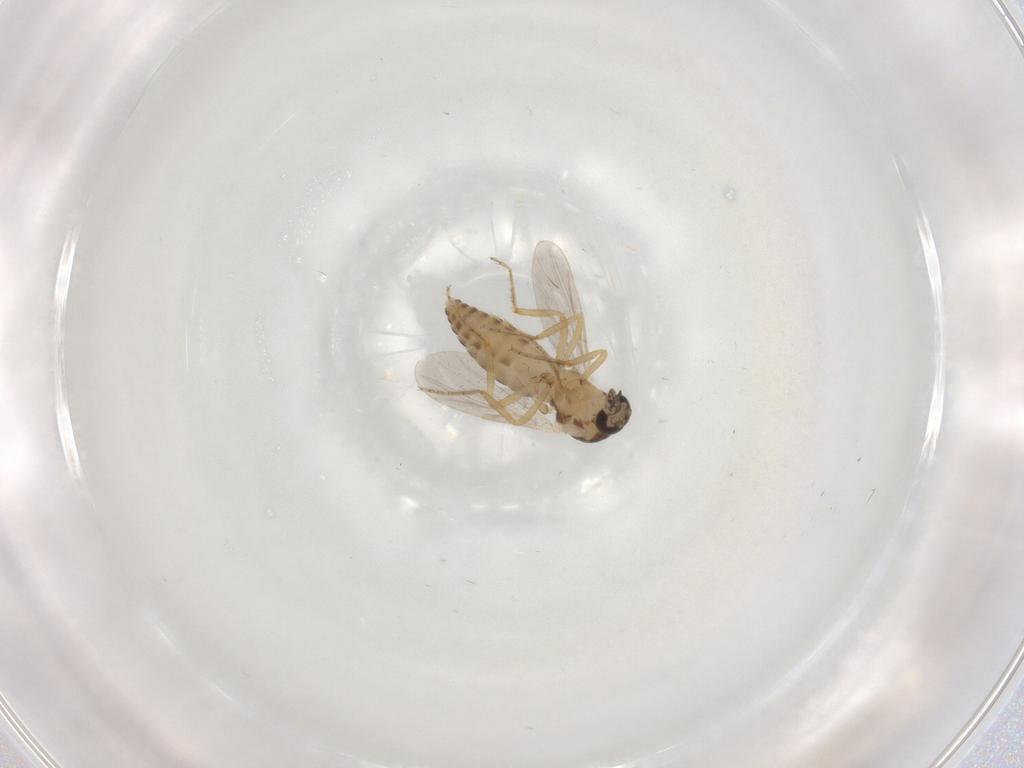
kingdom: Animalia
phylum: Arthropoda
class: Insecta
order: Diptera
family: Ceratopogonidae
